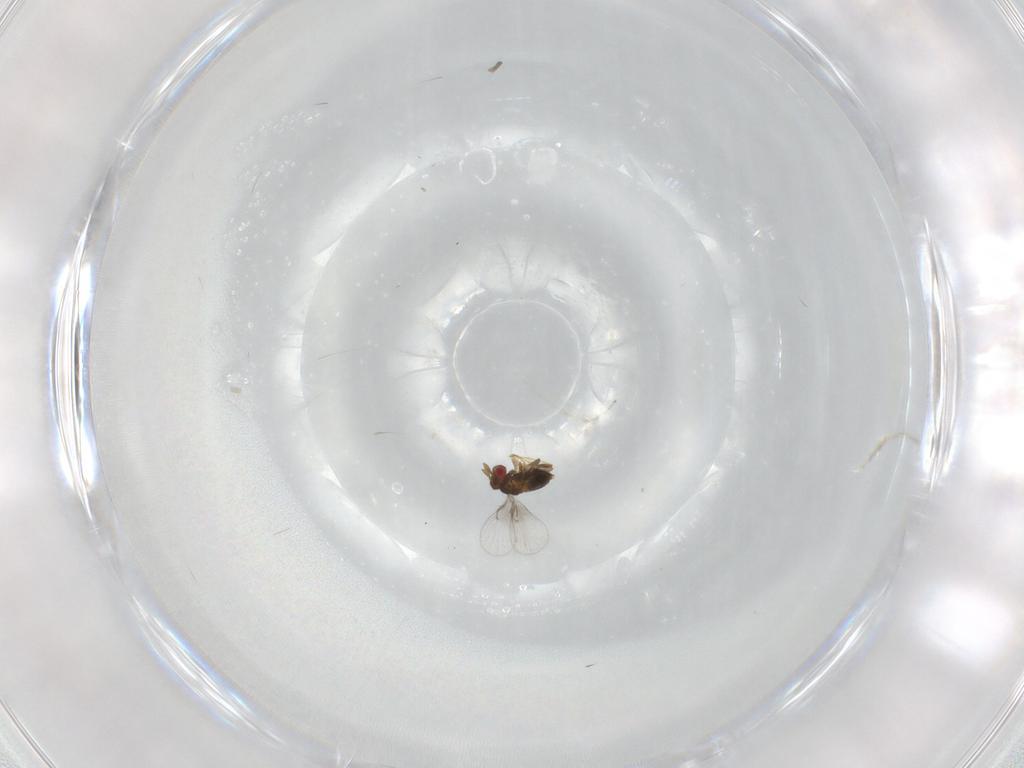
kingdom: Animalia
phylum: Arthropoda
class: Insecta
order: Hymenoptera
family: Trichogrammatidae
